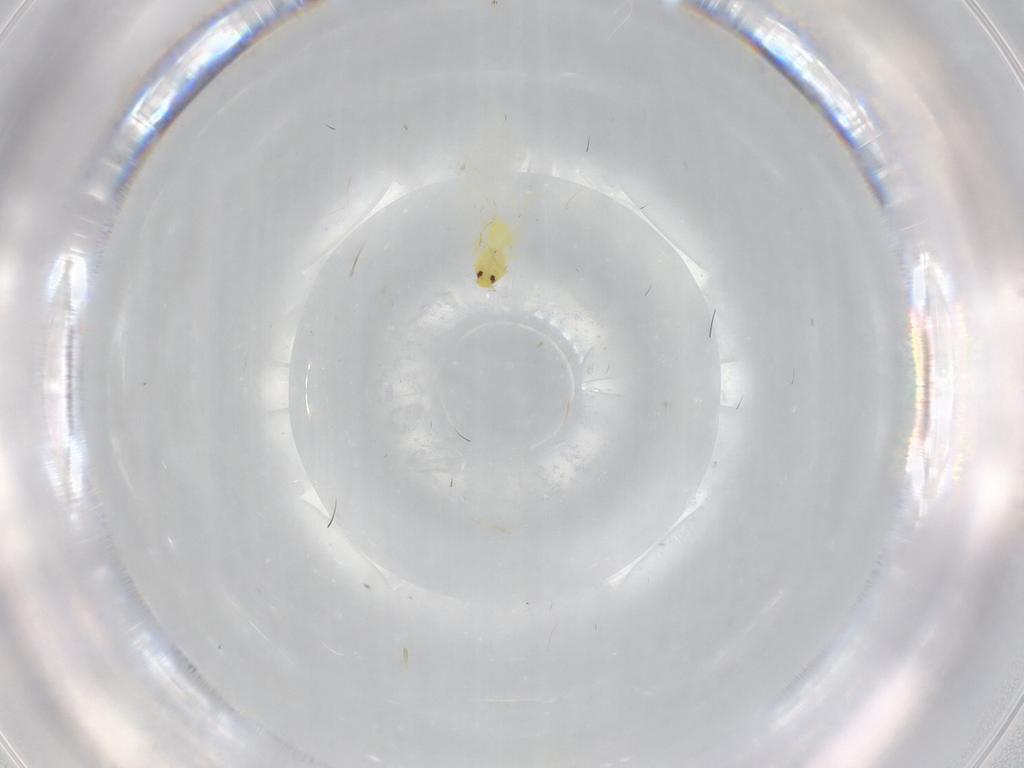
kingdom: Animalia
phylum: Arthropoda
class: Insecta
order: Hemiptera
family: Aleyrodidae
